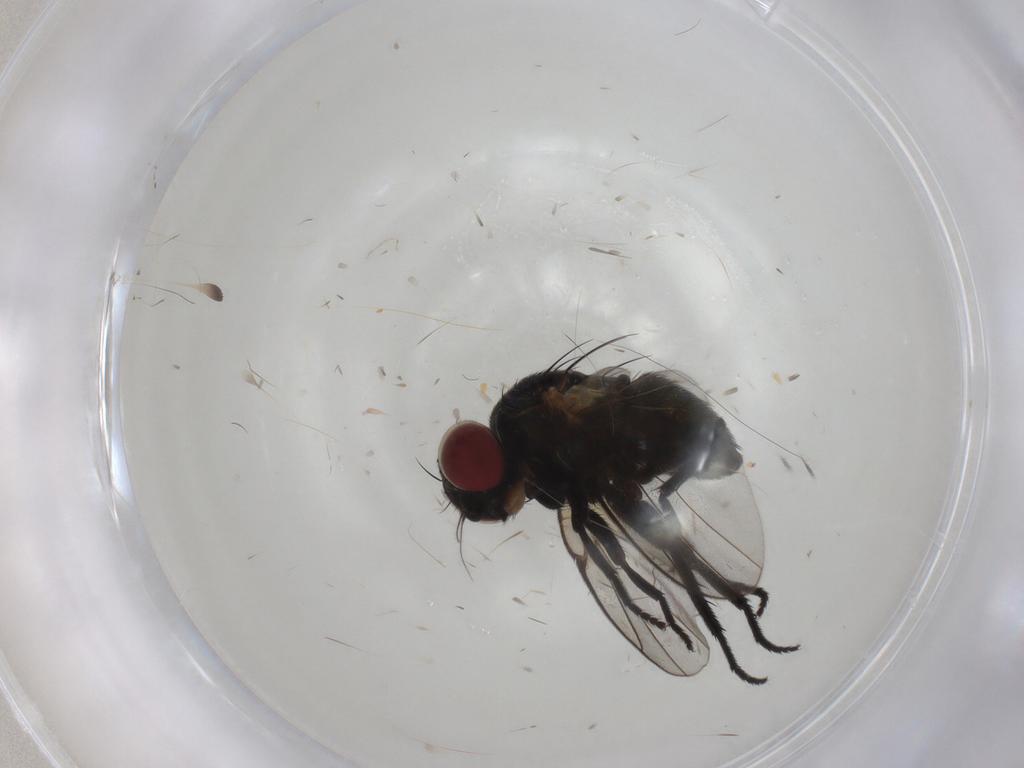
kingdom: Animalia
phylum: Arthropoda
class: Insecta
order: Diptera
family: Agromyzidae
